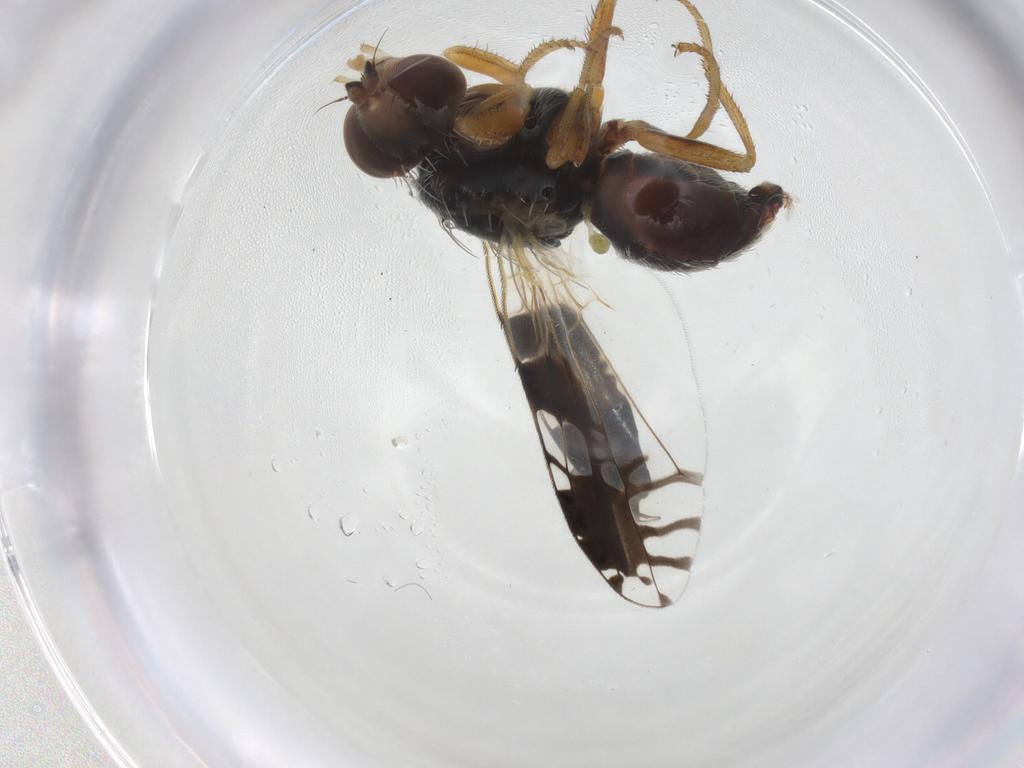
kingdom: Animalia
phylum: Arthropoda
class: Insecta
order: Diptera
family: Tephritidae
